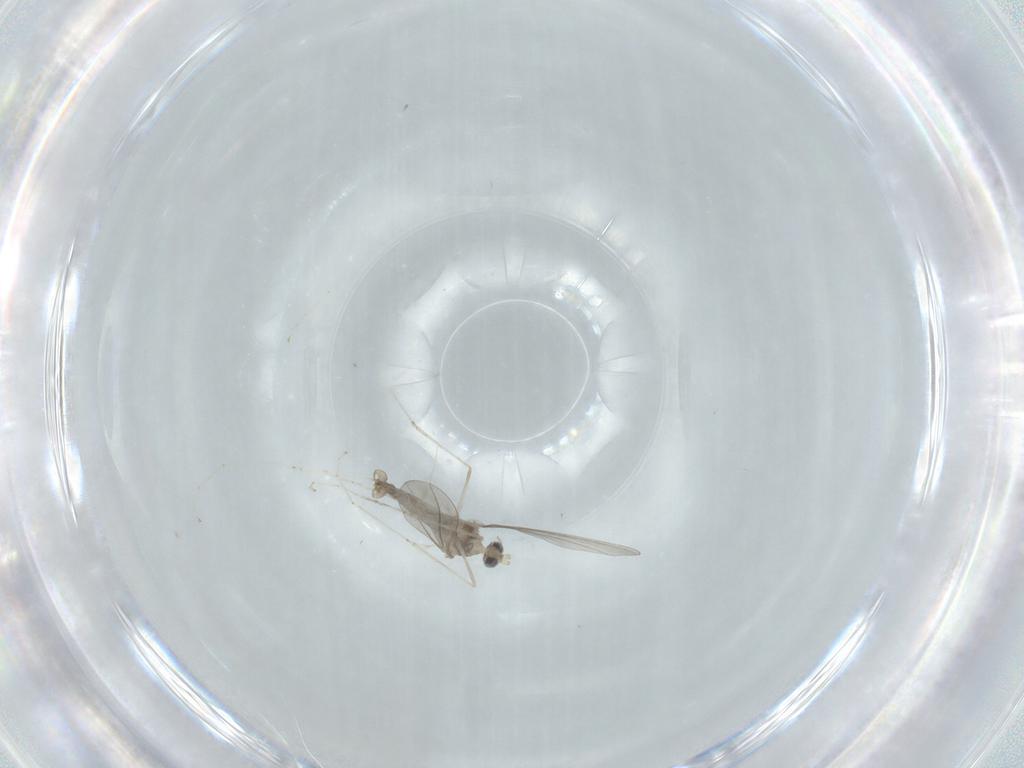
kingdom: Animalia
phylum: Arthropoda
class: Insecta
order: Diptera
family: Cecidomyiidae
